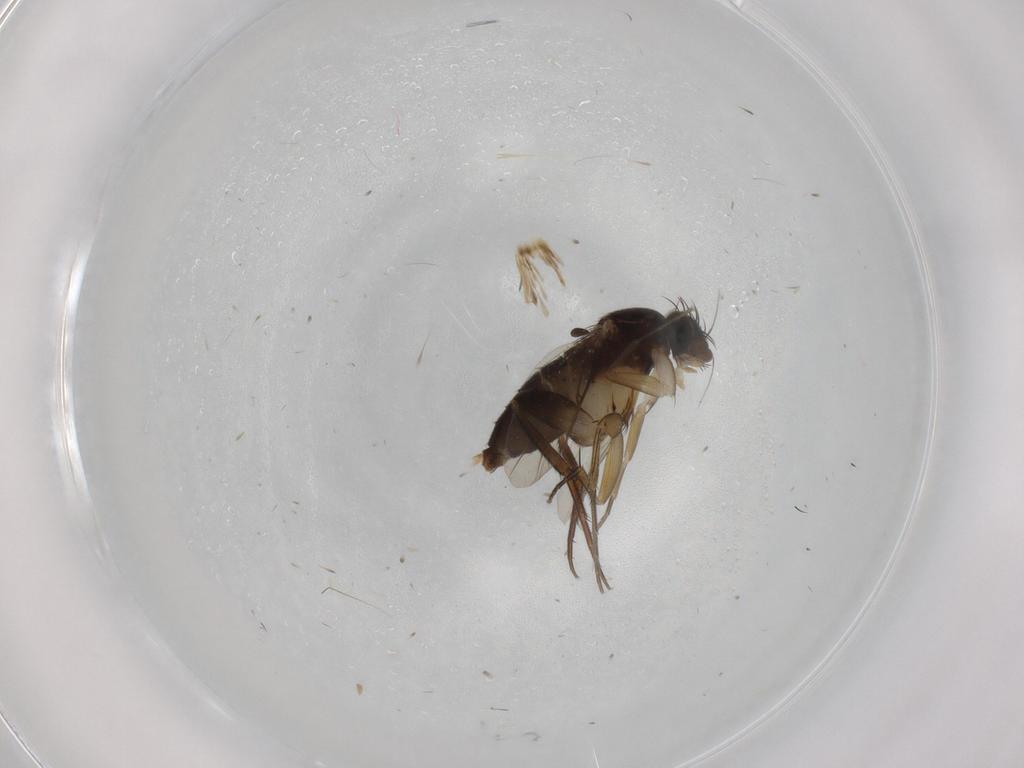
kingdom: Animalia
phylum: Arthropoda
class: Insecta
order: Diptera
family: Phoridae
